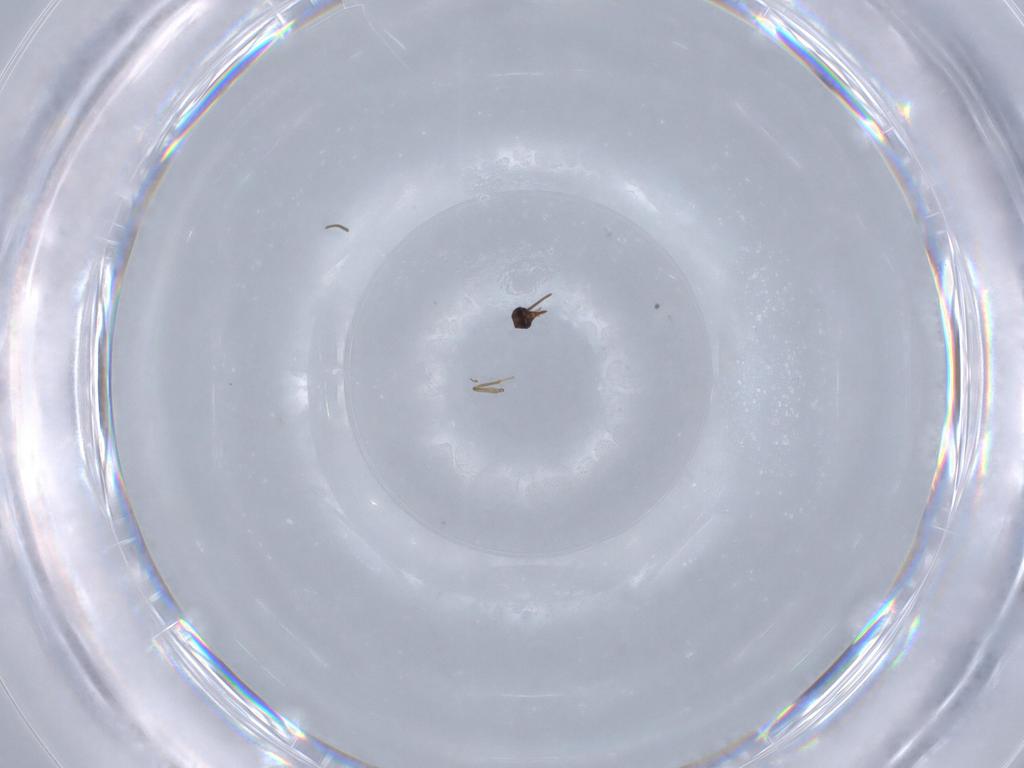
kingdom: Animalia
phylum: Arthropoda
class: Insecta
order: Diptera
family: Ceratopogonidae
